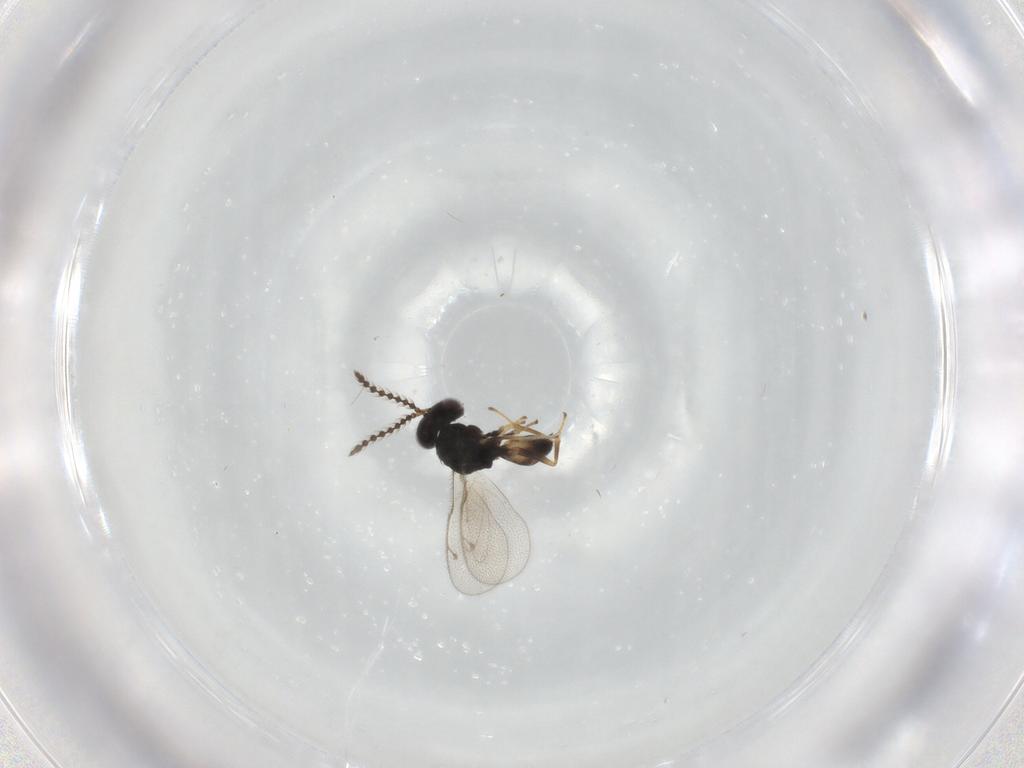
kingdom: Animalia
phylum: Arthropoda
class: Insecta
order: Hymenoptera
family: Pteromalidae
